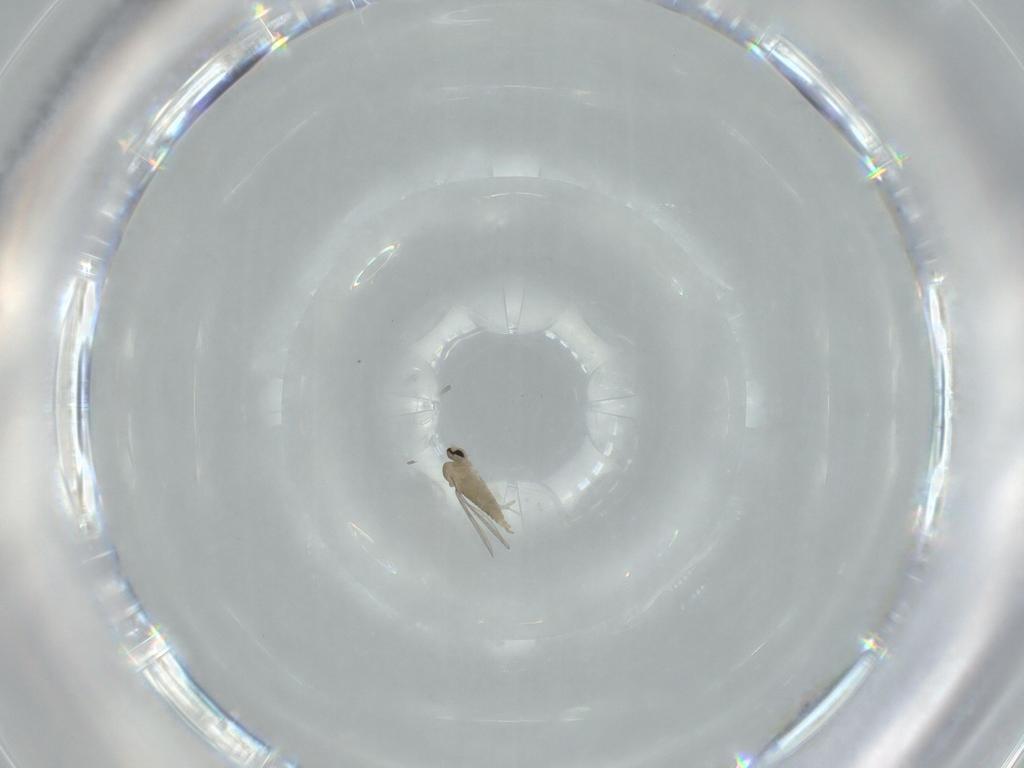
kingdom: Animalia
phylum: Arthropoda
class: Insecta
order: Diptera
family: Cecidomyiidae
